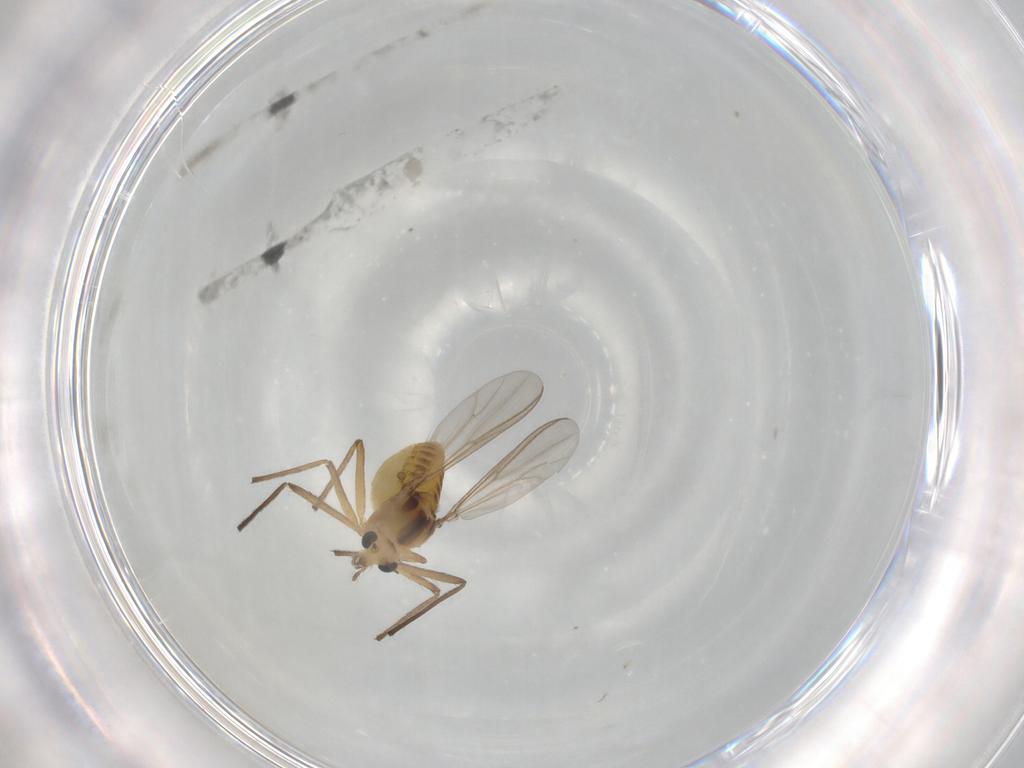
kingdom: Animalia
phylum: Arthropoda
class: Insecta
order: Diptera
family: Chironomidae
